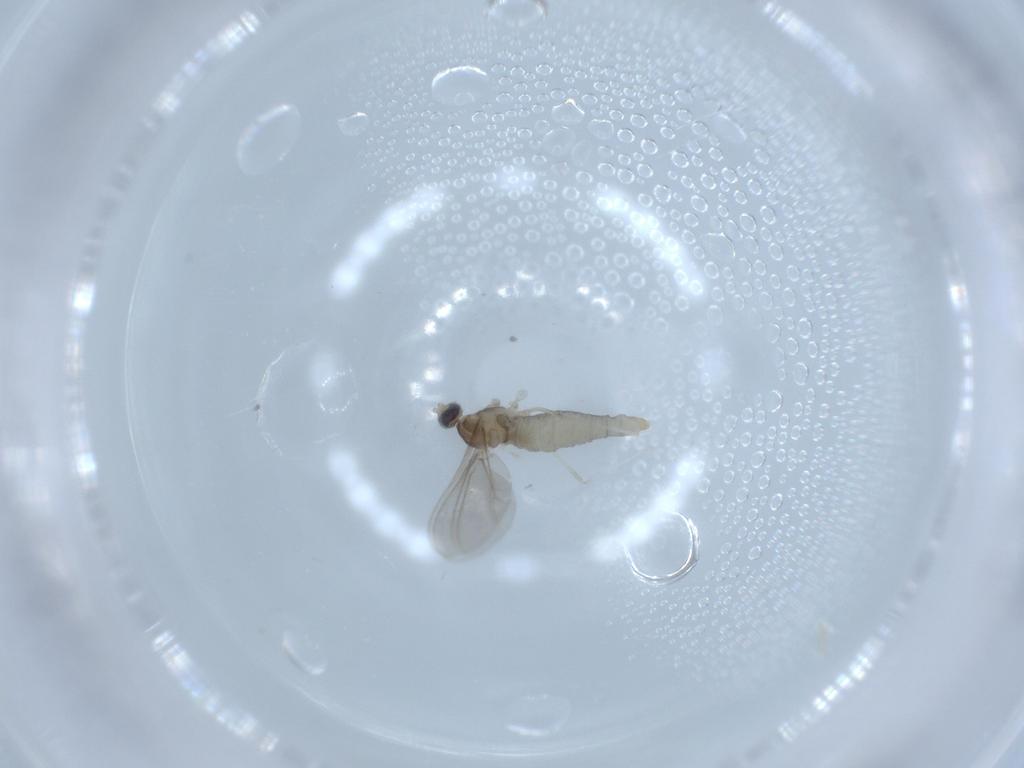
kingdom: Animalia
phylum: Arthropoda
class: Insecta
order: Diptera
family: Cecidomyiidae
